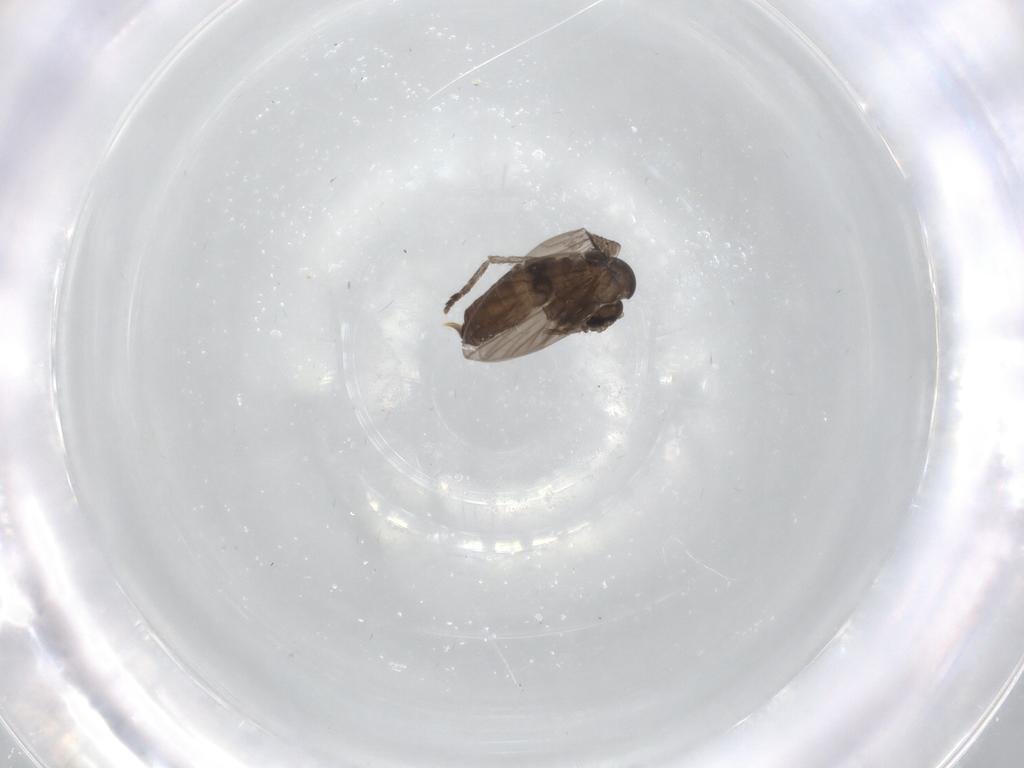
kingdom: Animalia
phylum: Arthropoda
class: Insecta
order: Diptera
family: Psychodidae
